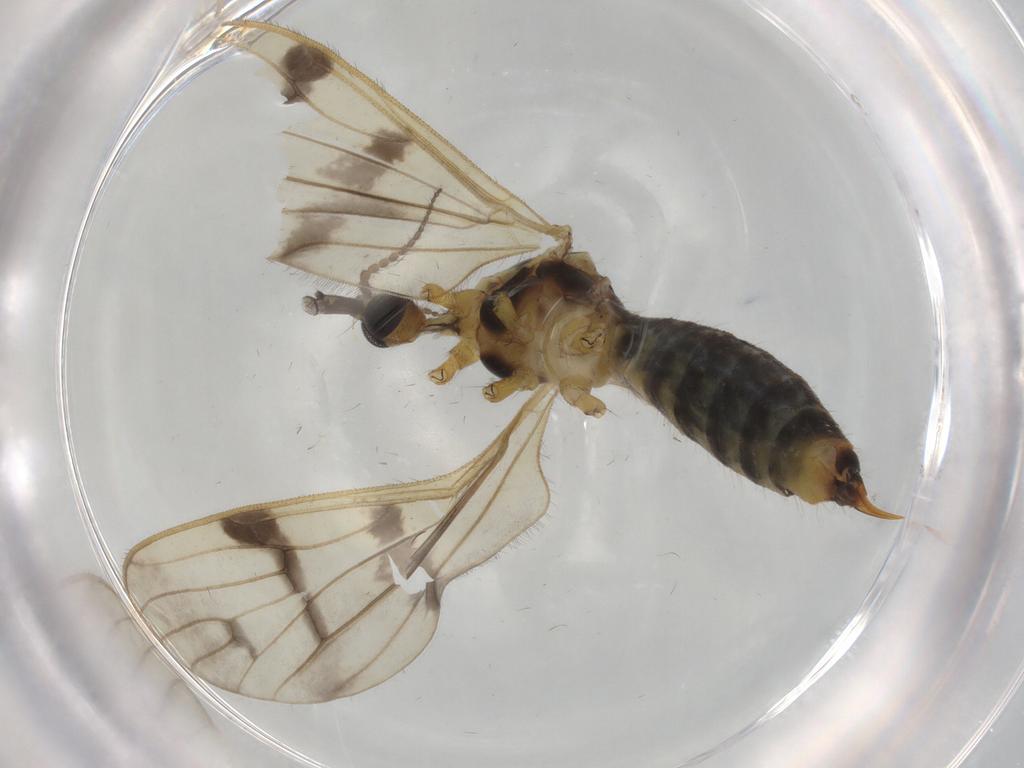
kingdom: Animalia
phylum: Arthropoda
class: Insecta
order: Diptera
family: Limoniidae
